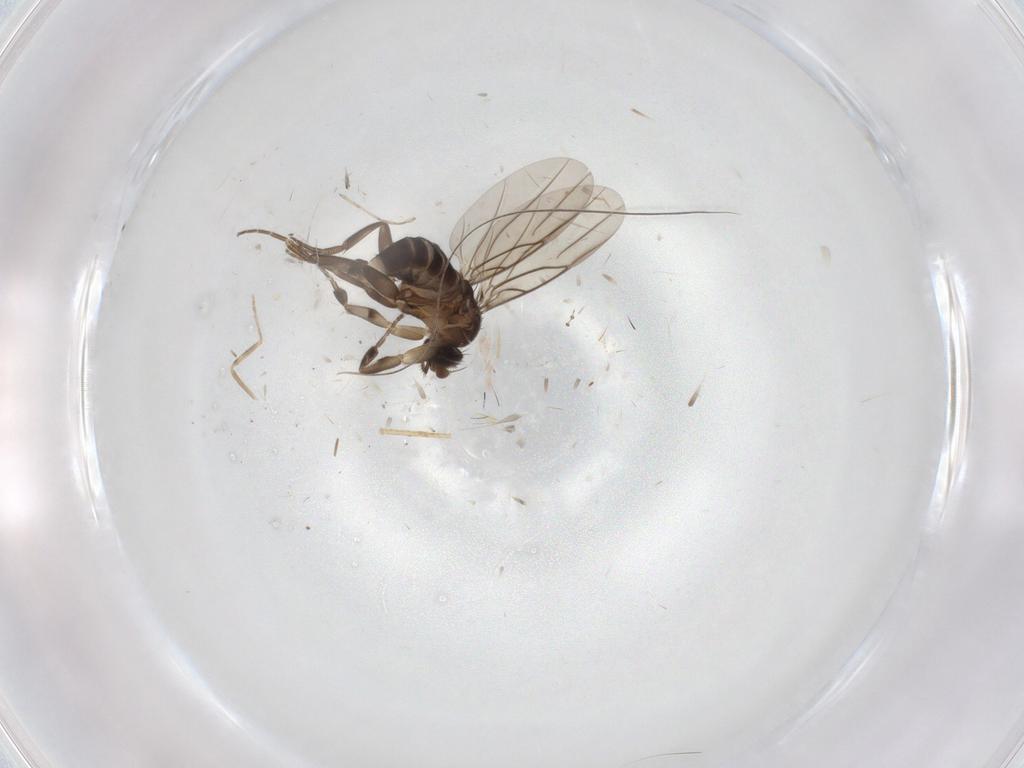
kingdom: Animalia
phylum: Arthropoda
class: Insecta
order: Diptera
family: Phoridae
